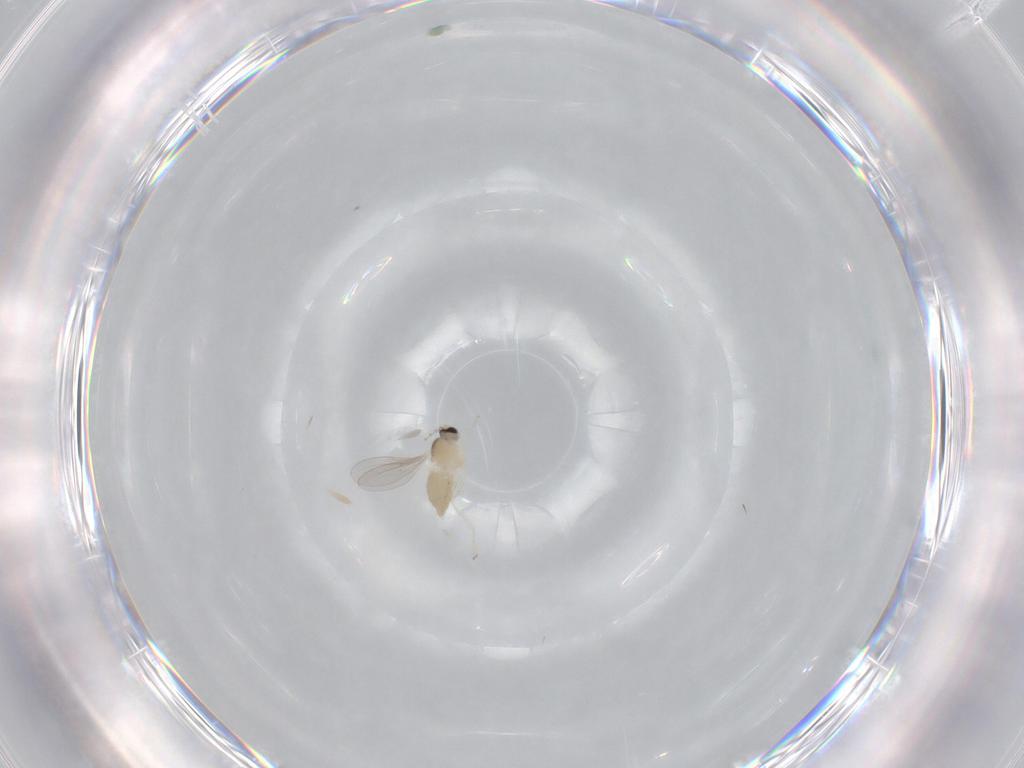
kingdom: Animalia
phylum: Arthropoda
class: Insecta
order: Diptera
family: Cecidomyiidae
